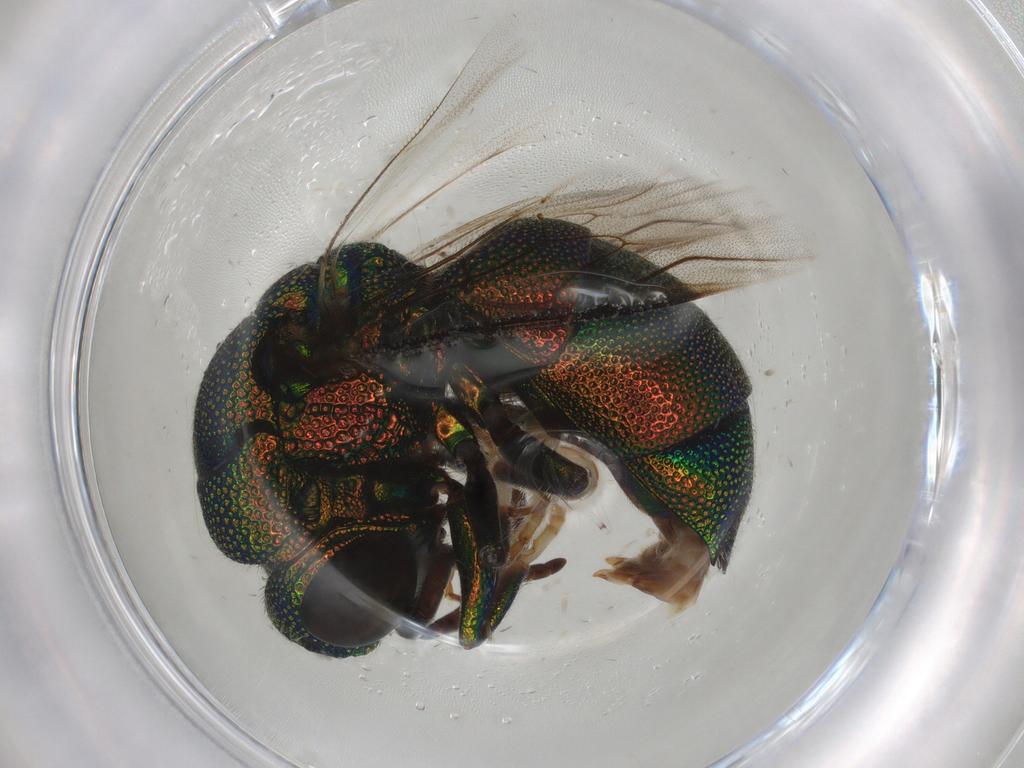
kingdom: Animalia
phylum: Arthropoda
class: Insecta
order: Hymenoptera
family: Chrysididae
